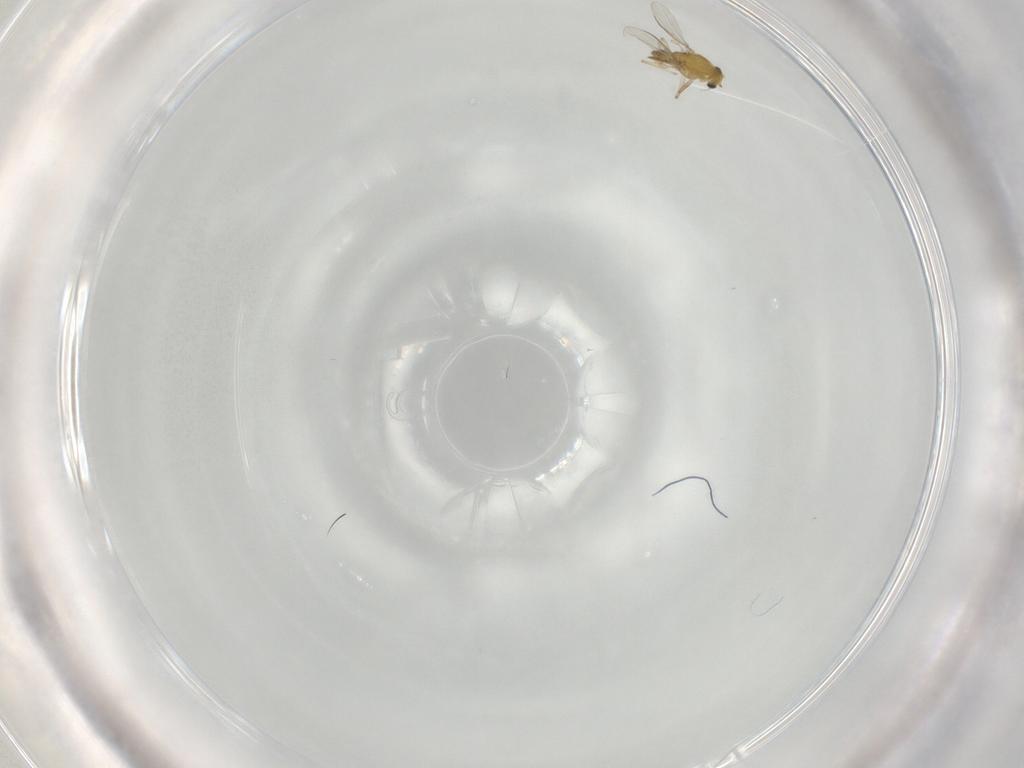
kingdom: Animalia
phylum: Arthropoda
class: Insecta
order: Diptera
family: Chironomidae
